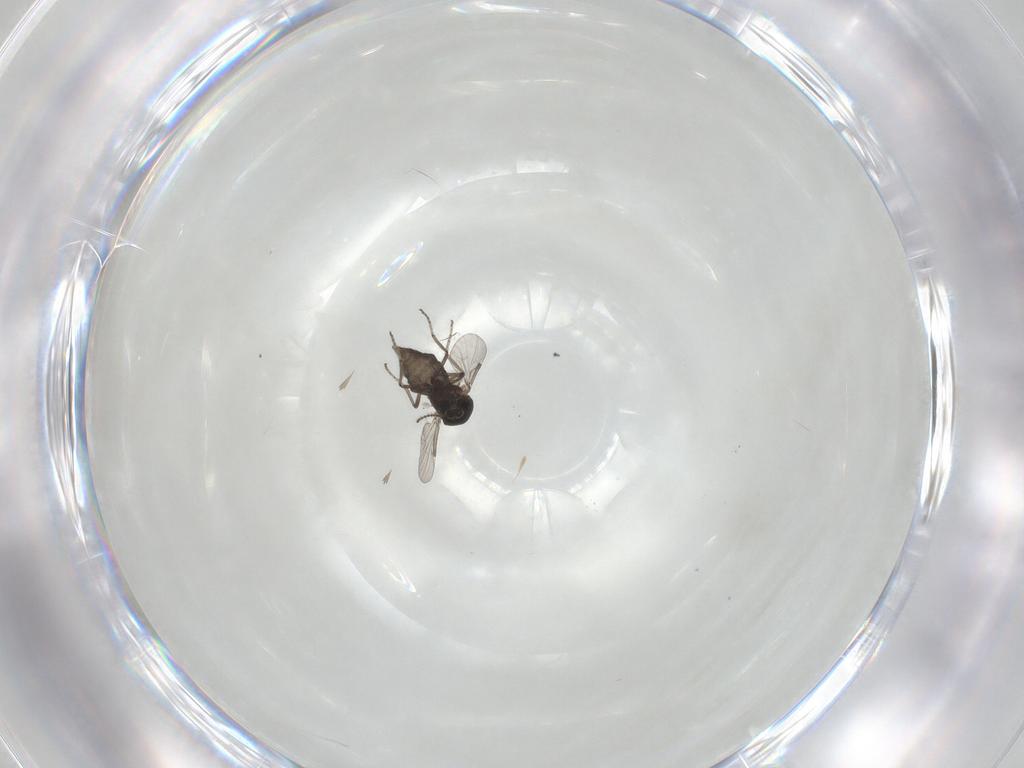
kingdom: Animalia
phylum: Arthropoda
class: Insecta
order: Diptera
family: Ceratopogonidae
